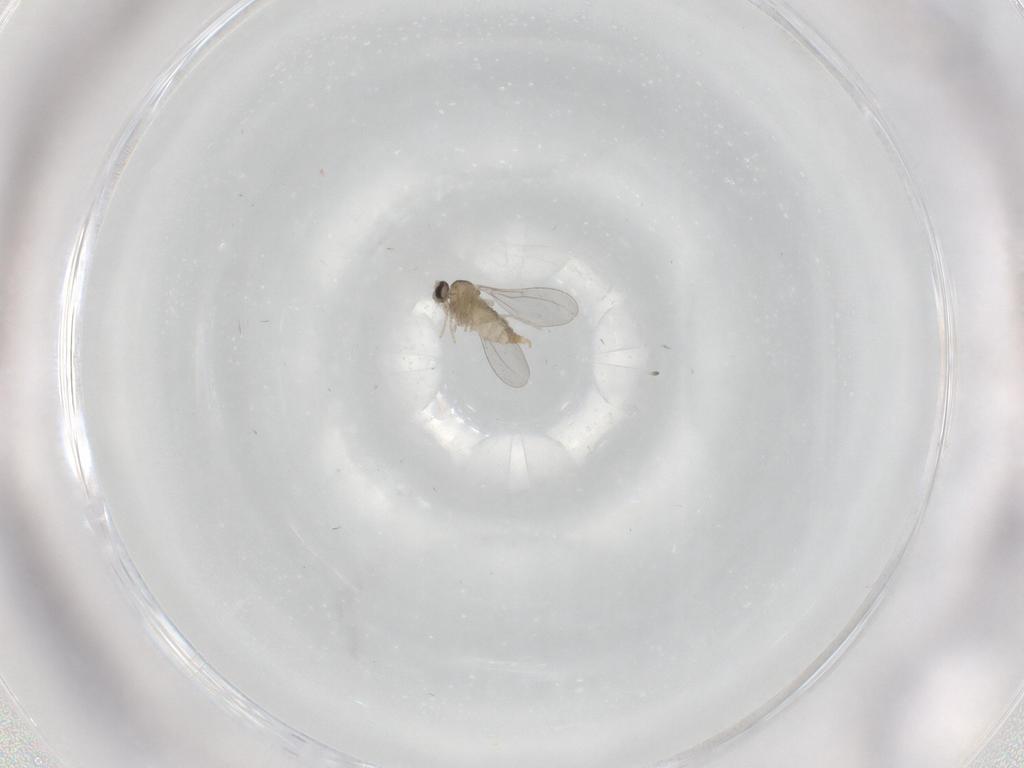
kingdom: Animalia
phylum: Arthropoda
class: Insecta
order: Diptera
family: Cecidomyiidae
